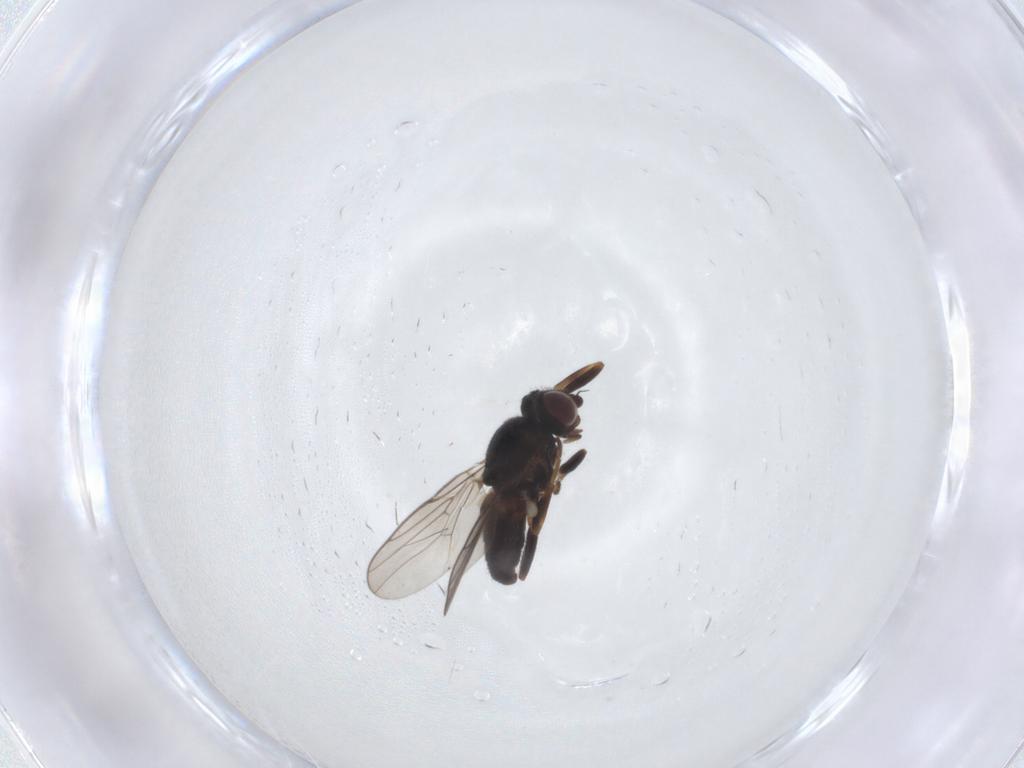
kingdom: Animalia
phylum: Arthropoda
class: Insecta
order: Diptera
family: Chloropidae
